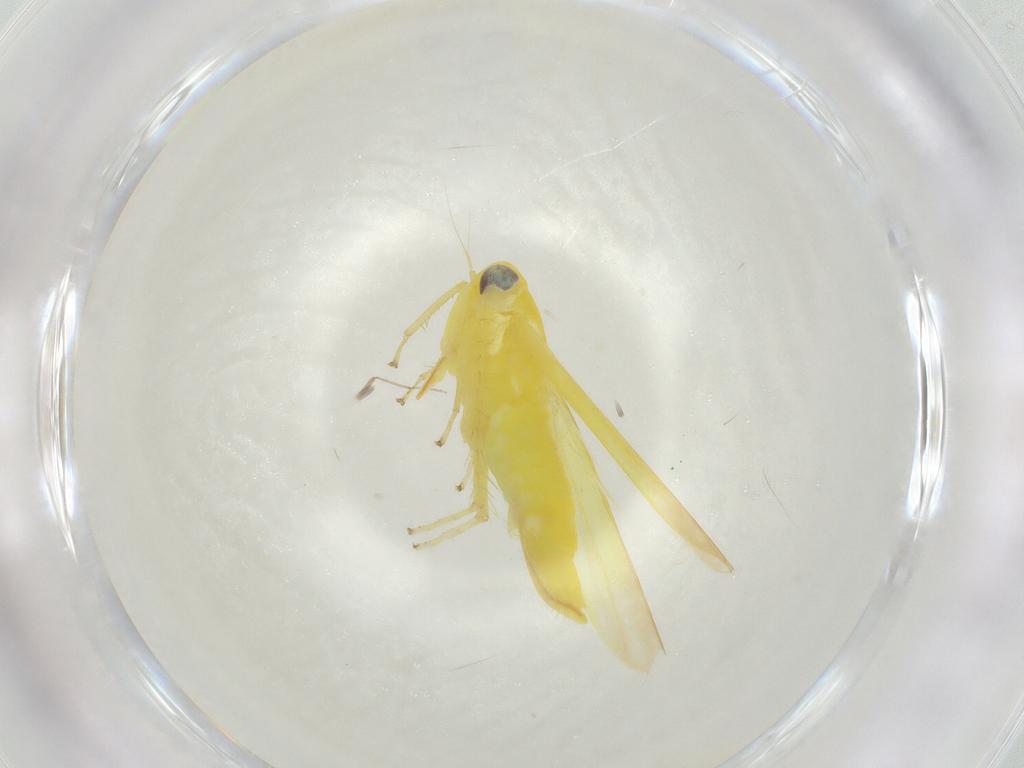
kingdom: Animalia
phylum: Arthropoda
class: Insecta
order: Hemiptera
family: Cicadellidae
